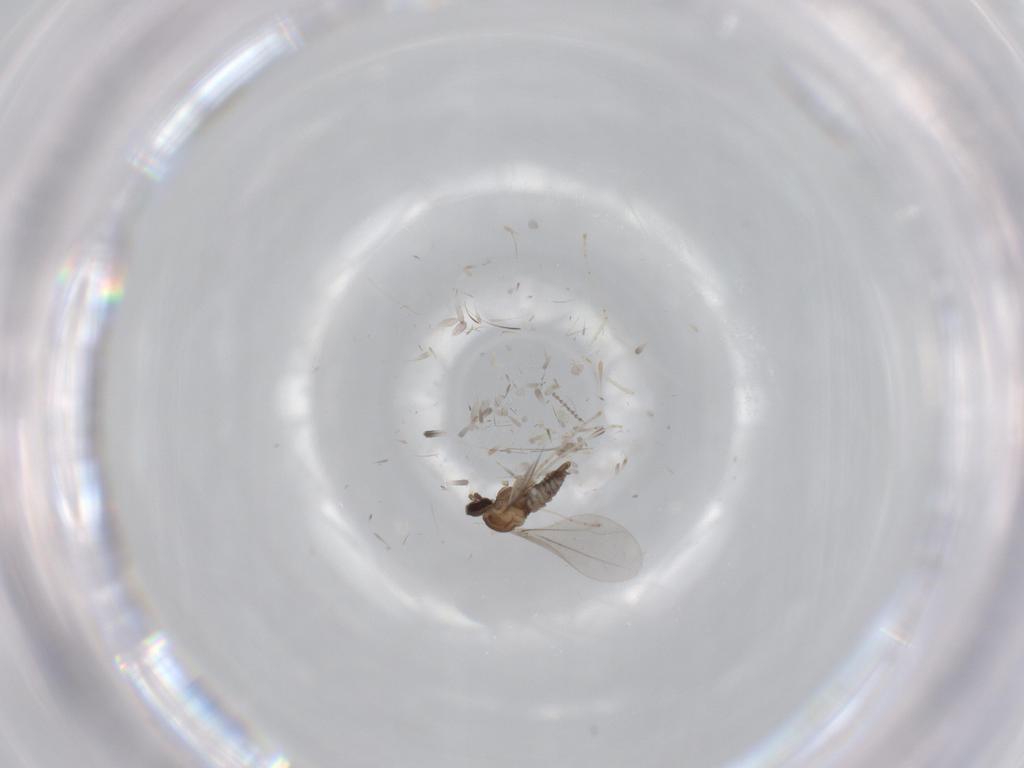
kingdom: Animalia
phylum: Arthropoda
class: Insecta
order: Diptera
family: Cecidomyiidae
